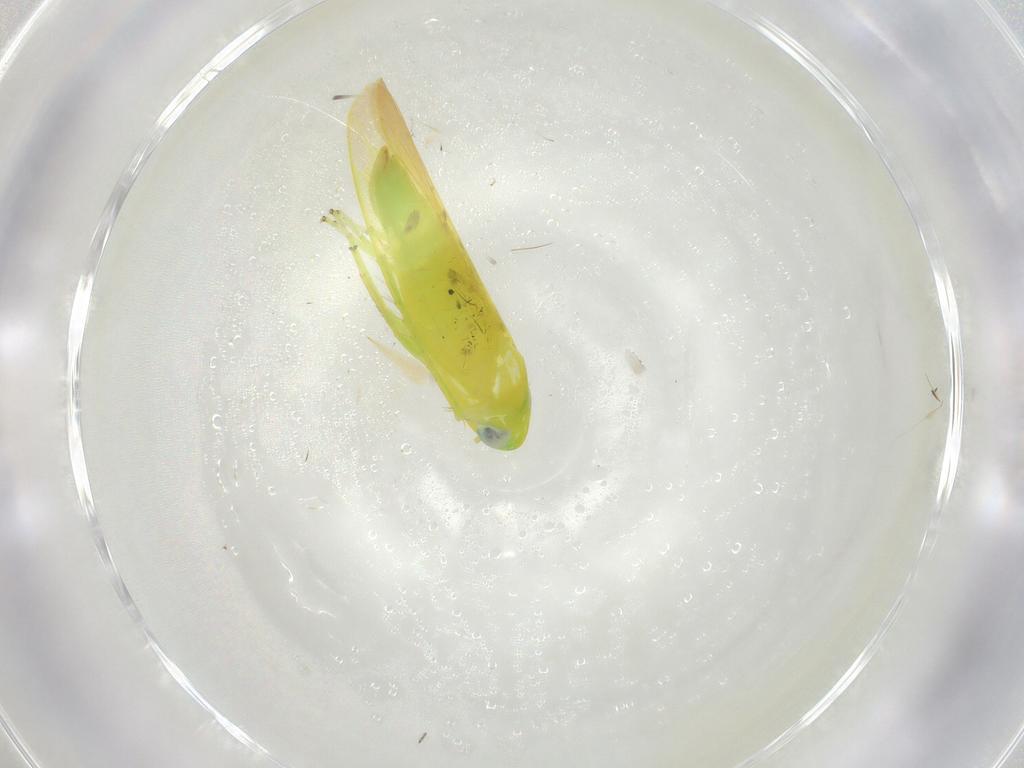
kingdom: Animalia
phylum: Arthropoda
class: Insecta
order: Hemiptera
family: Cicadellidae
